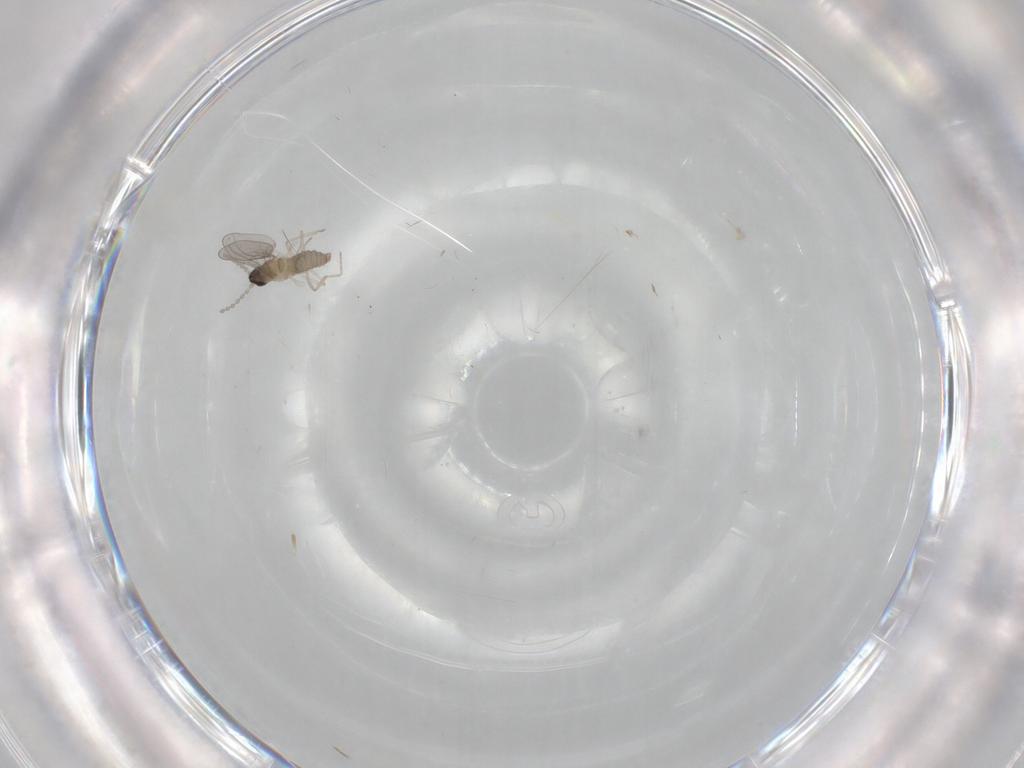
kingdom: Animalia
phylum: Arthropoda
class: Insecta
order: Diptera
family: Cecidomyiidae
